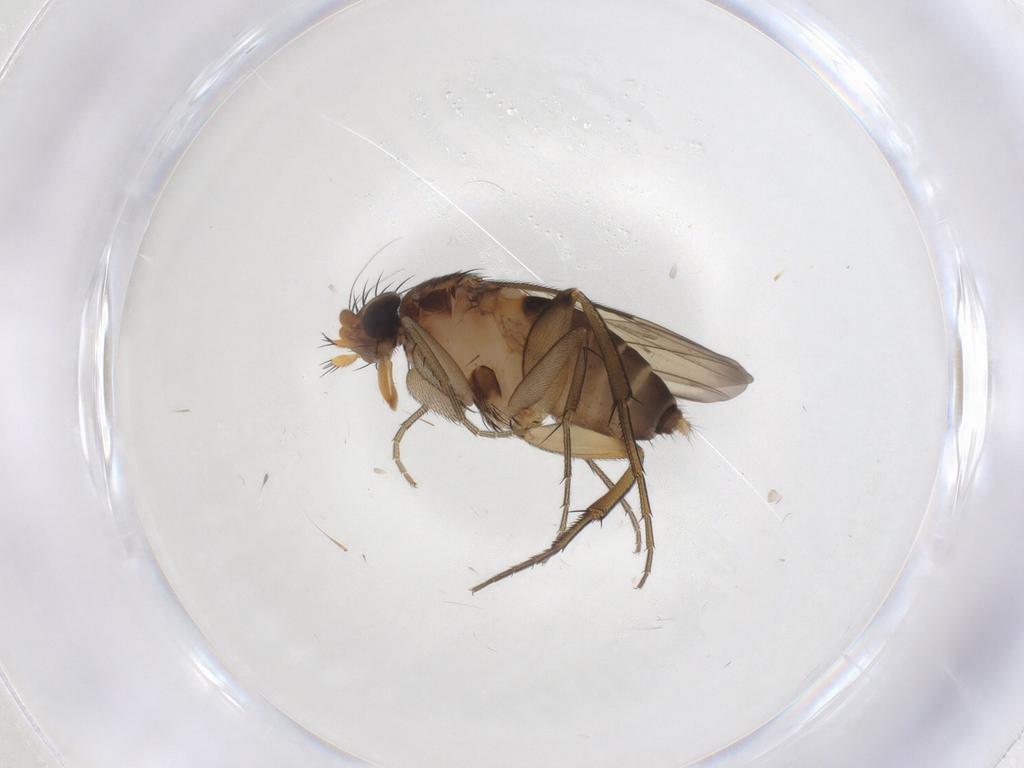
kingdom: Animalia
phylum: Arthropoda
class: Insecta
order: Diptera
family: Phoridae
